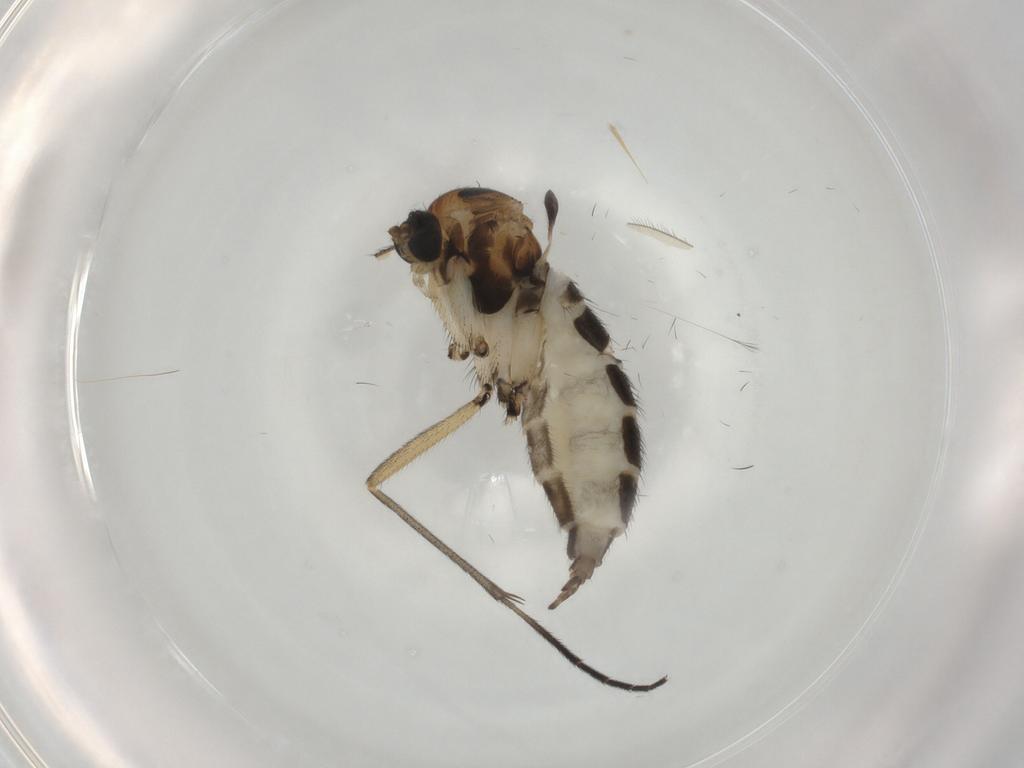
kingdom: Animalia
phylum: Arthropoda
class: Insecta
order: Diptera
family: Sciaridae
